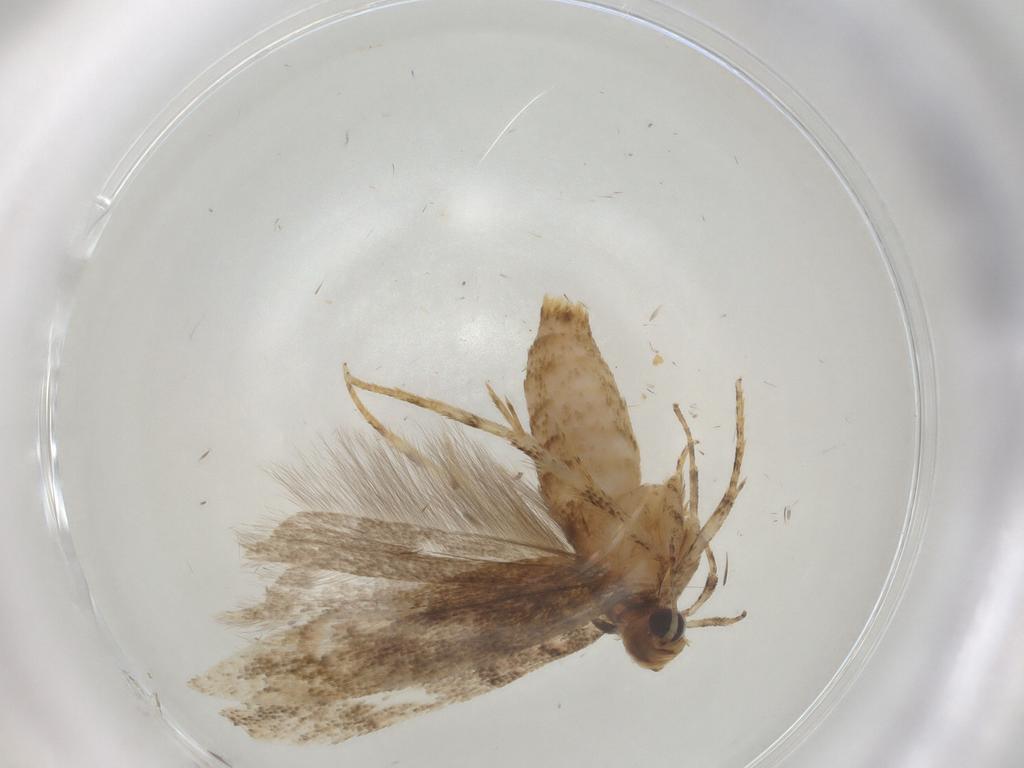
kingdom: Animalia
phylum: Arthropoda
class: Insecta
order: Lepidoptera
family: Gelechiidae
